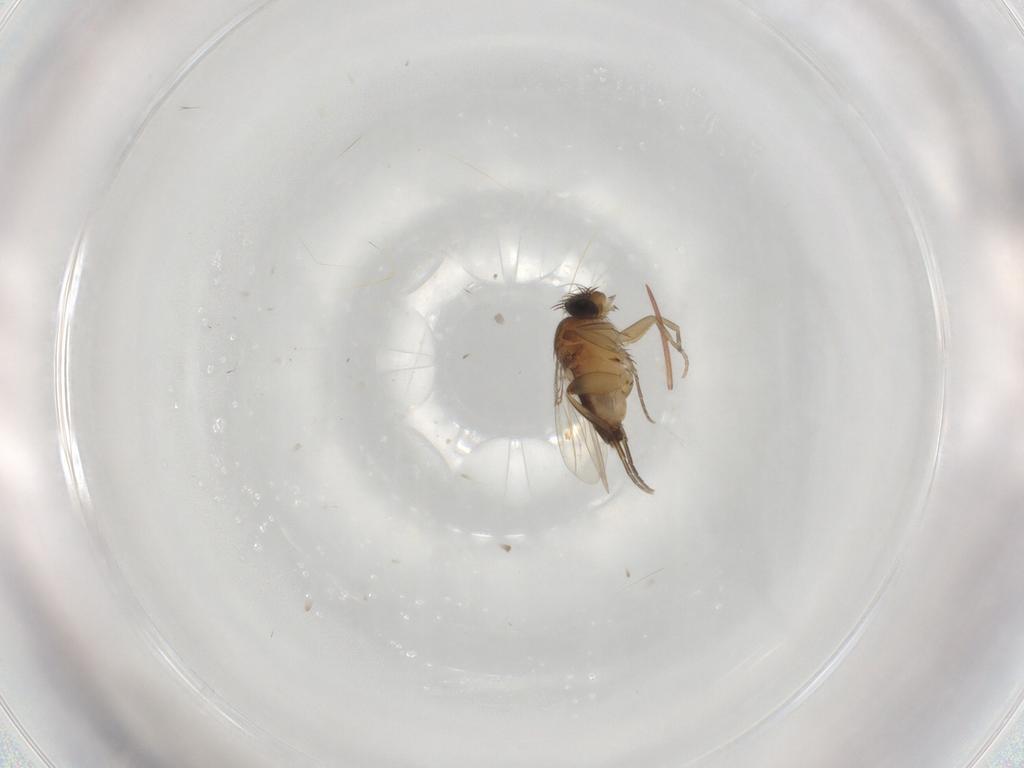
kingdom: Animalia
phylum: Arthropoda
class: Insecta
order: Diptera
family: Phoridae
